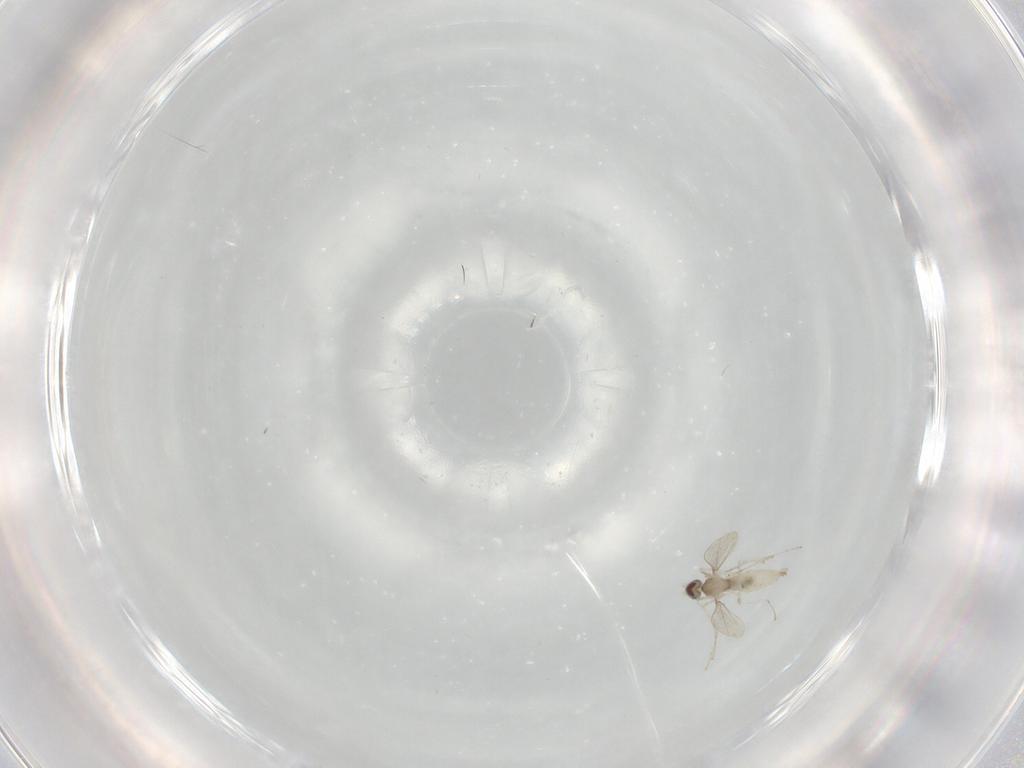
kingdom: Animalia
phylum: Arthropoda
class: Insecta
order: Diptera
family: Cecidomyiidae
